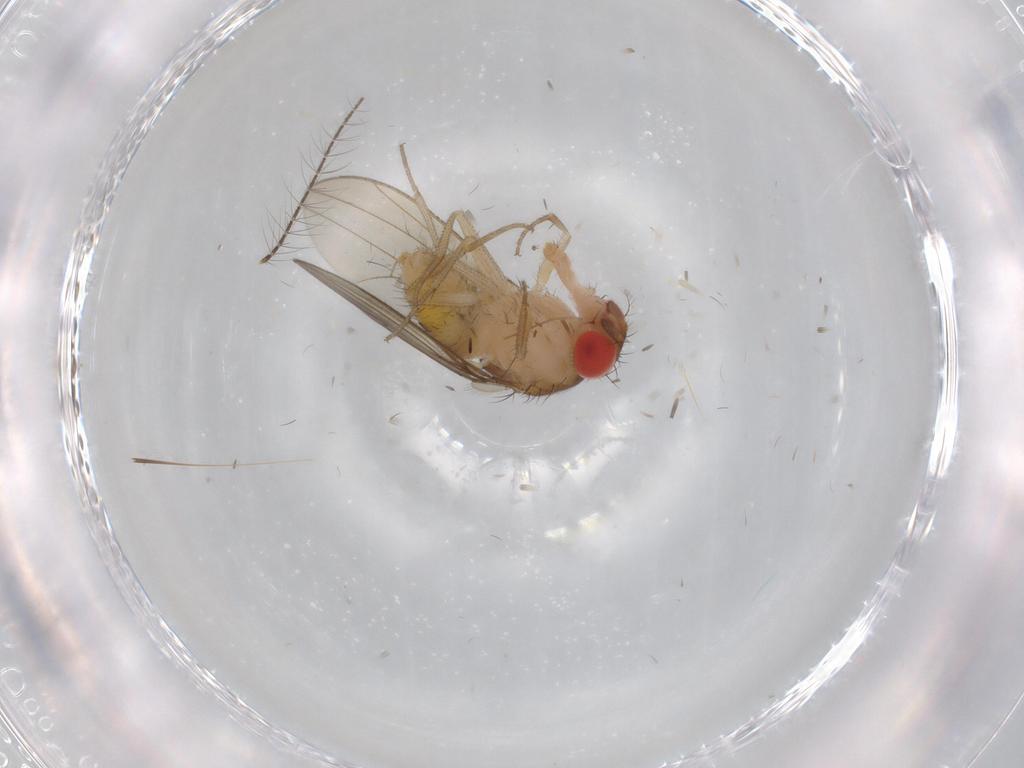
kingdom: Animalia
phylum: Arthropoda
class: Insecta
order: Diptera
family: Drosophilidae
